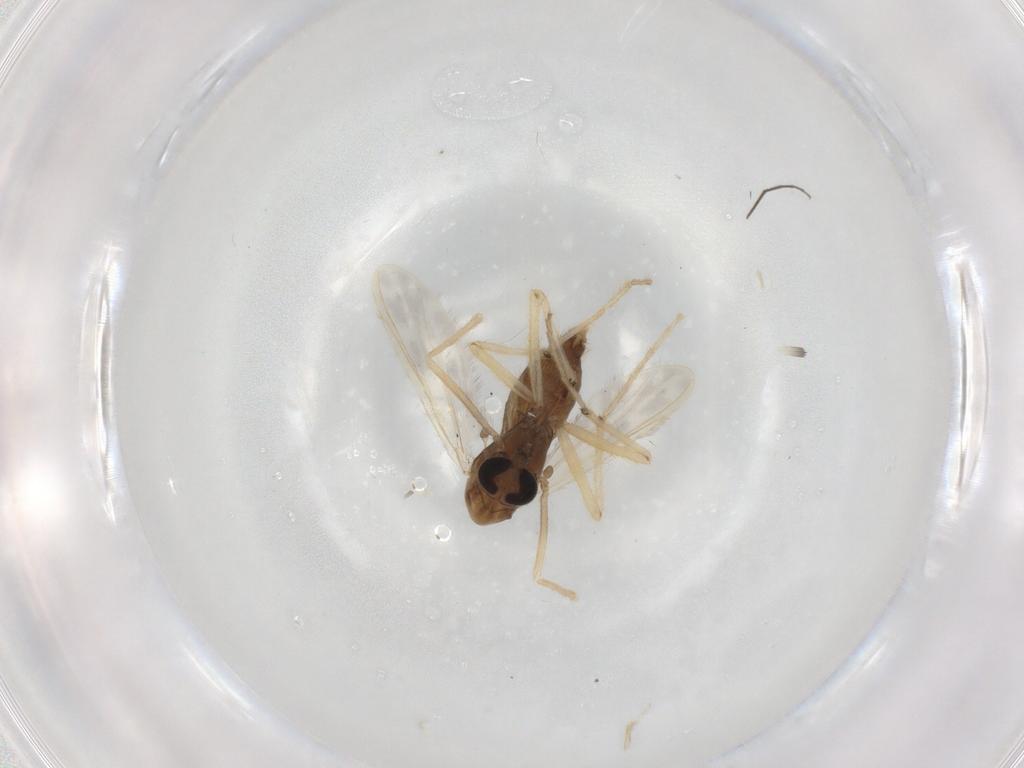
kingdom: Animalia
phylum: Arthropoda
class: Insecta
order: Diptera
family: Chironomidae
